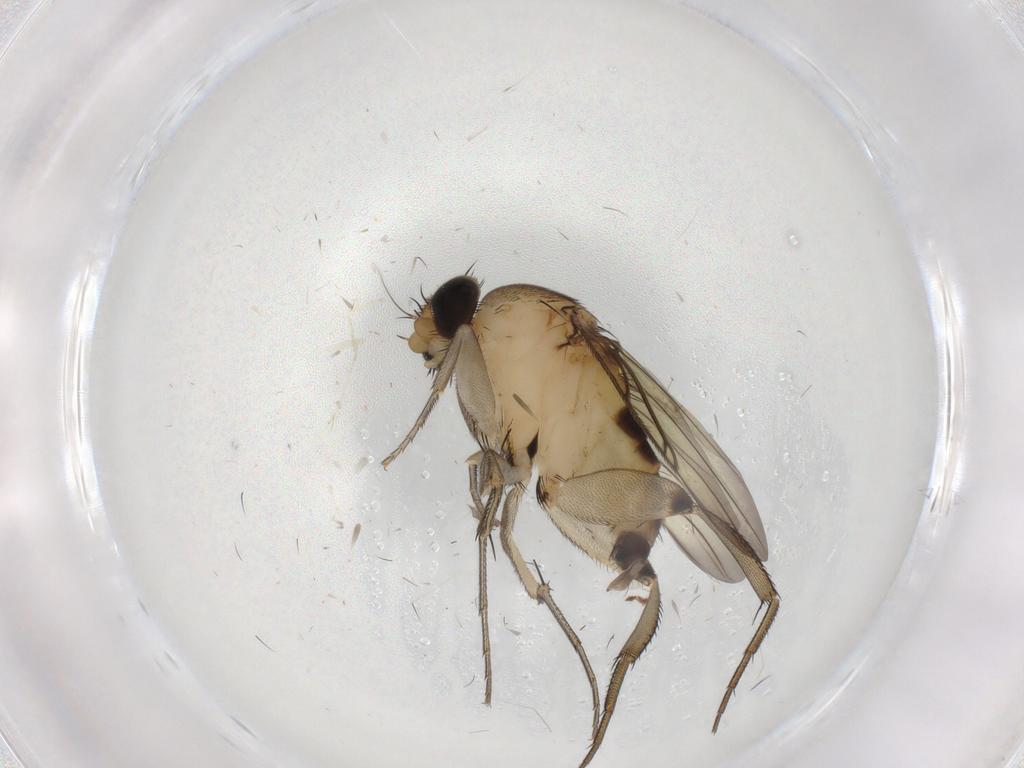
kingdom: Animalia
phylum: Arthropoda
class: Insecta
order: Diptera
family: Phoridae
